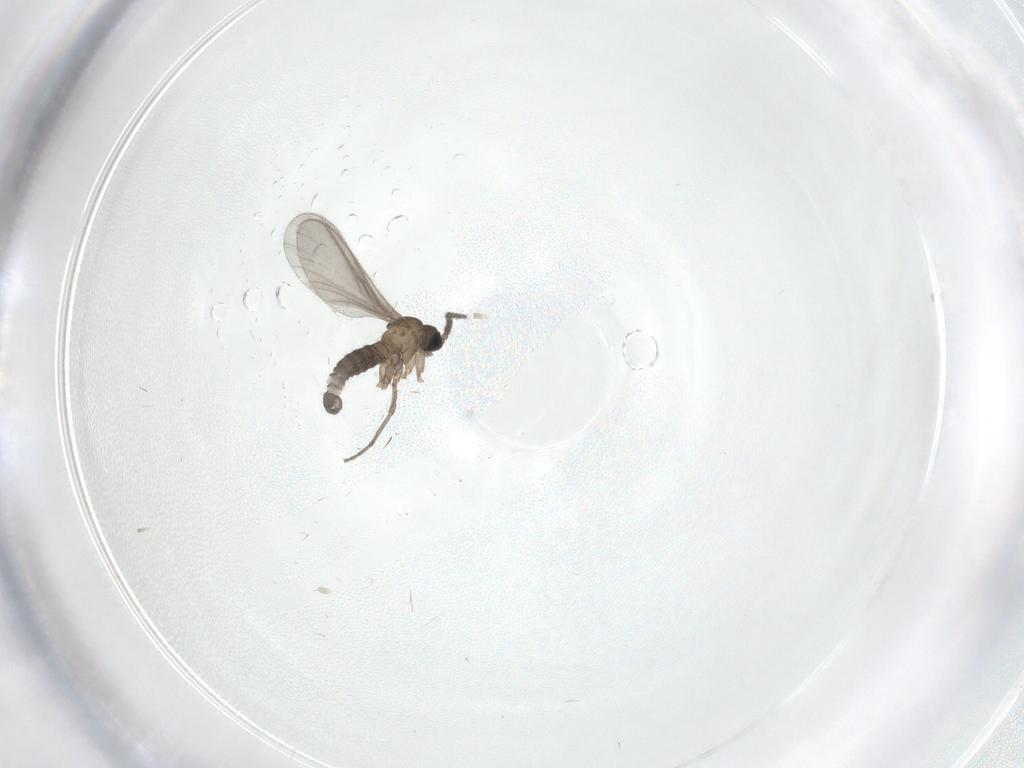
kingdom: Animalia
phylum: Arthropoda
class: Insecta
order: Diptera
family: Sciaridae
